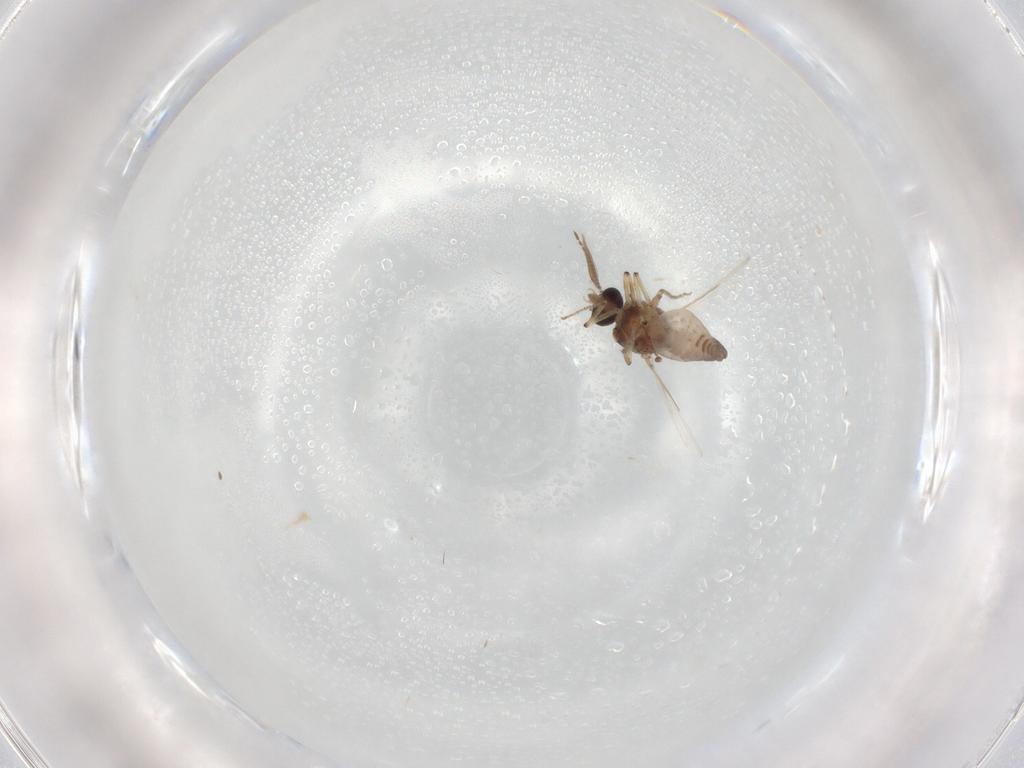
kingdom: Animalia
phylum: Arthropoda
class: Insecta
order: Diptera
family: Ceratopogonidae
